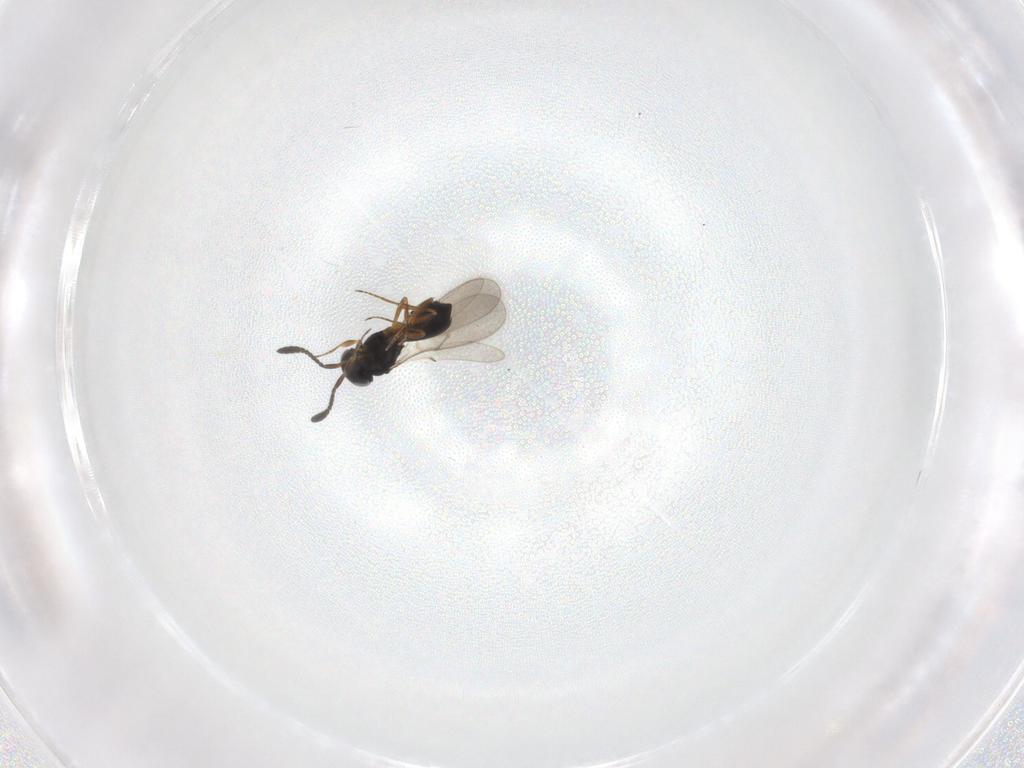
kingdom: Animalia
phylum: Arthropoda
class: Insecta
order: Hymenoptera
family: Scelionidae
